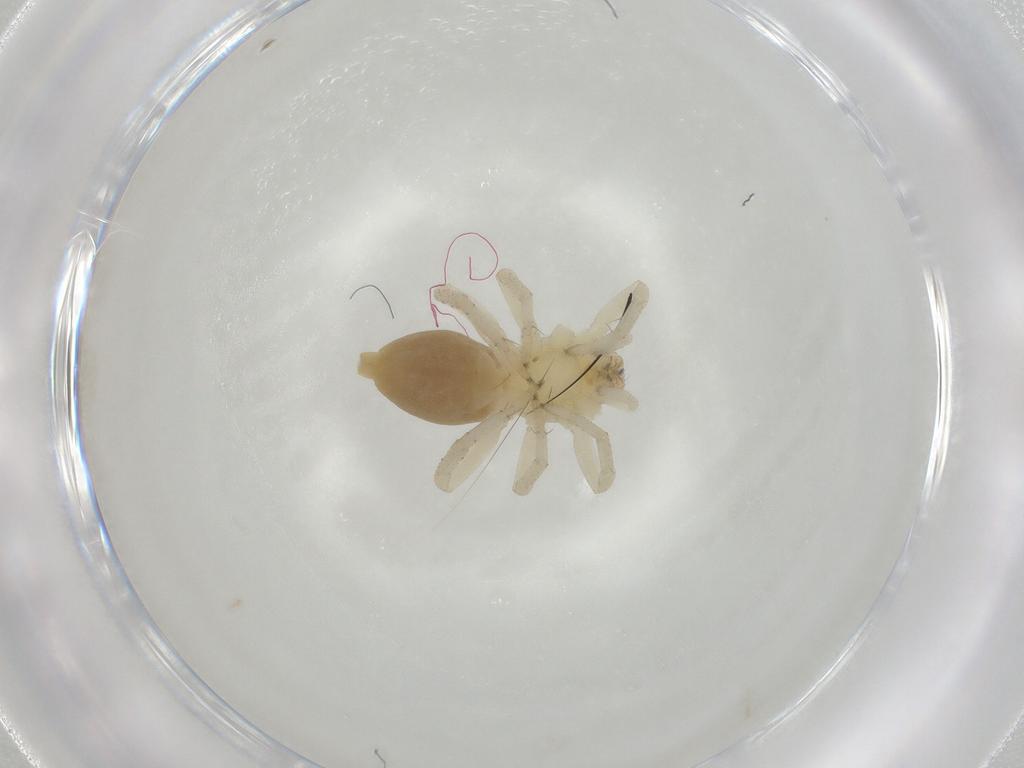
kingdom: Animalia
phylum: Arthropoda
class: Arachnida
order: Araneae
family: Clubionidae
